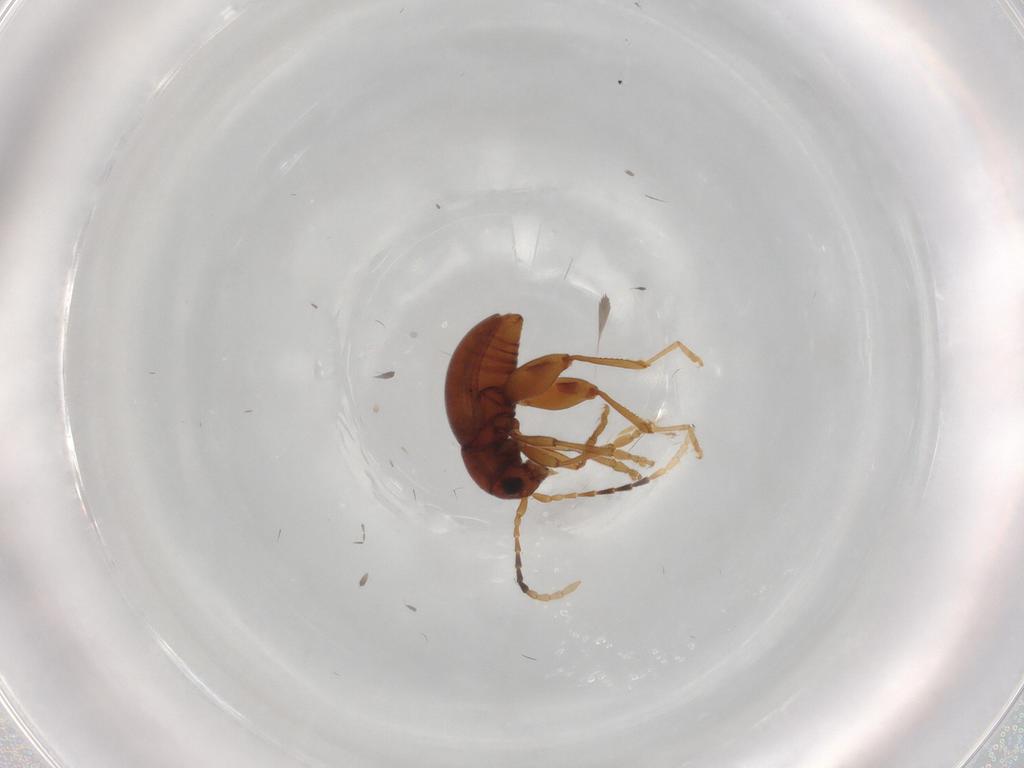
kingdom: Animalia
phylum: Arthropoda
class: Insecta
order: Coleoptera
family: Chrysomelidae
